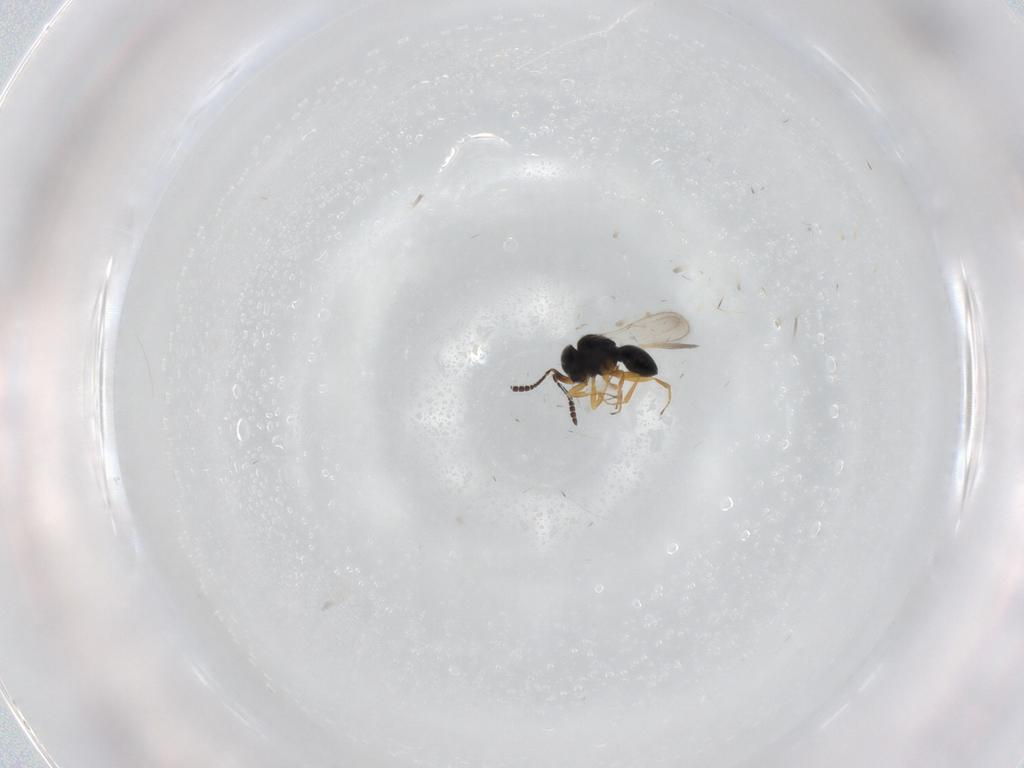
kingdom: Animalia
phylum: Arthropoda
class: Insecta
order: Hymenoptera
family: Scelionidae
